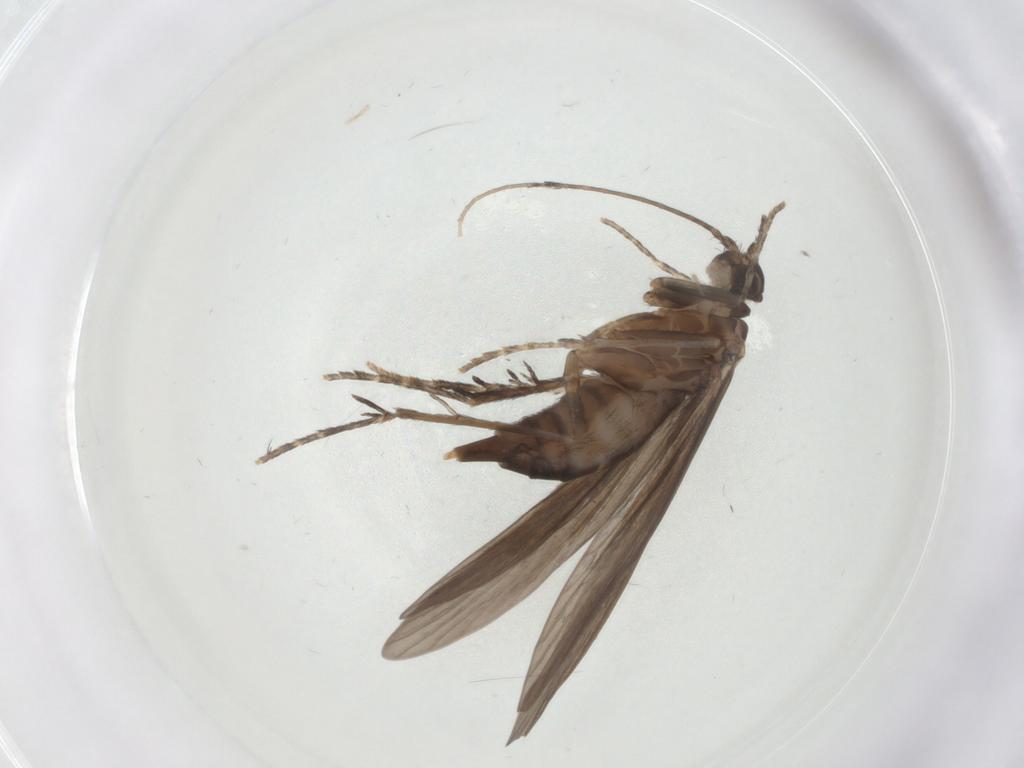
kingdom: Animalia
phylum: Arthropoda
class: Insecta
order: Trichoptera
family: Xiphocentronidae
